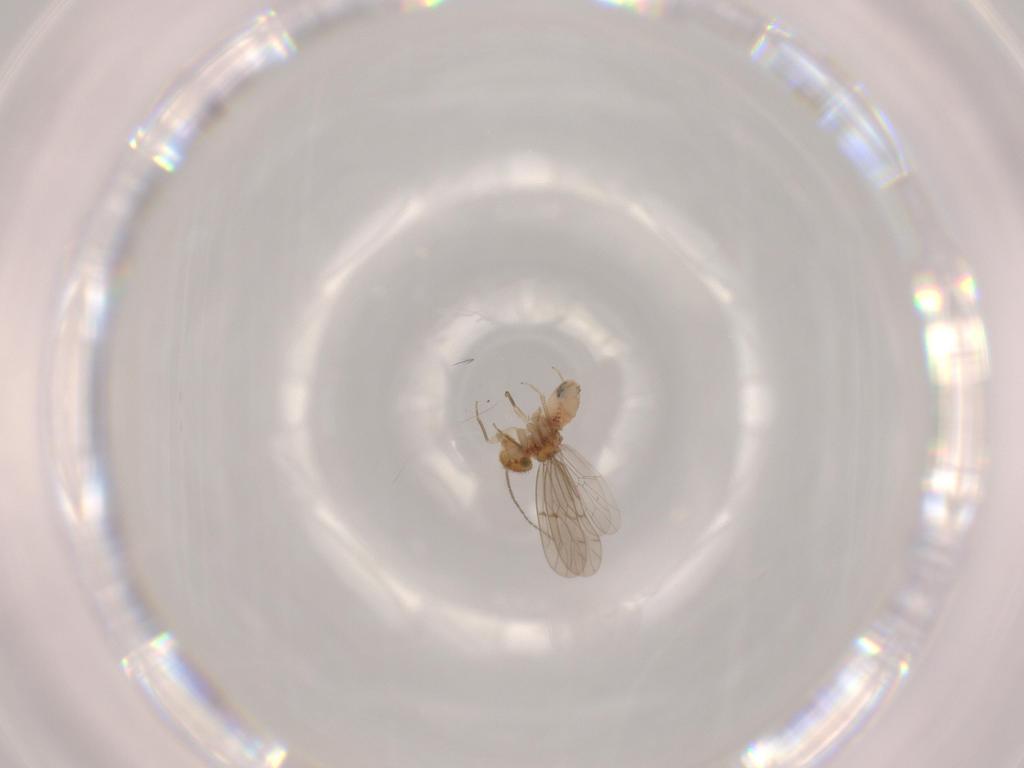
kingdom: Animalia
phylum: Arthropoda
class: Insecta
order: Psocodea
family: Ectopsocidae
